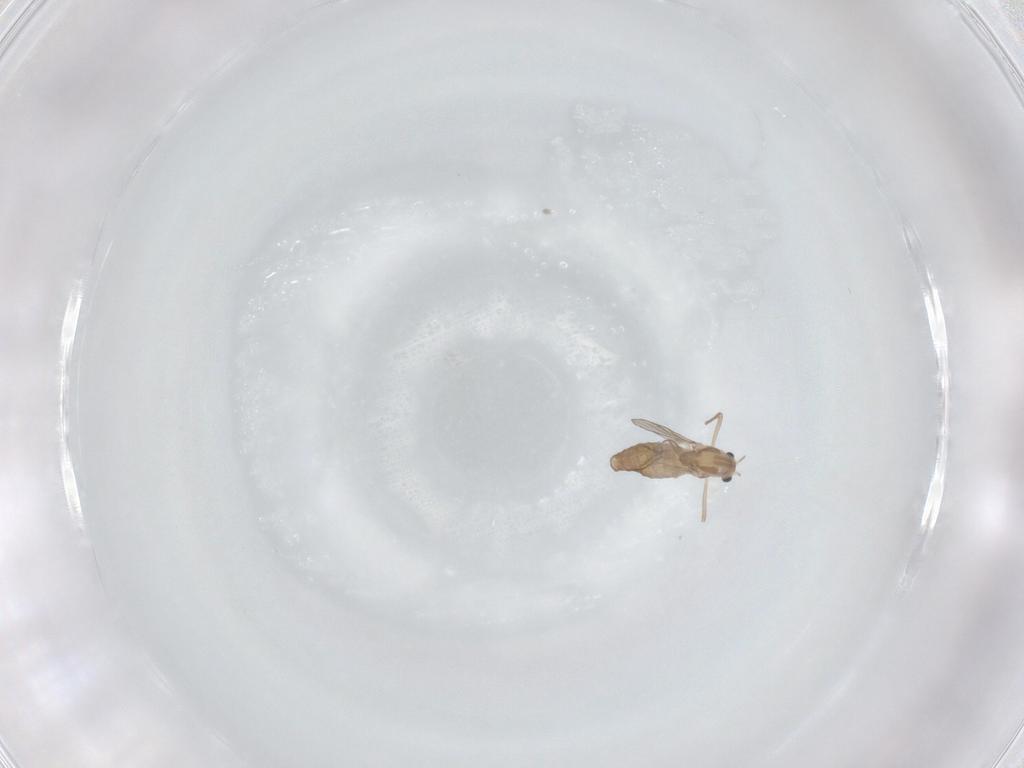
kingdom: Animalia
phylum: Arthropoda
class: Insecta
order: Diptera
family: Chironomidae
